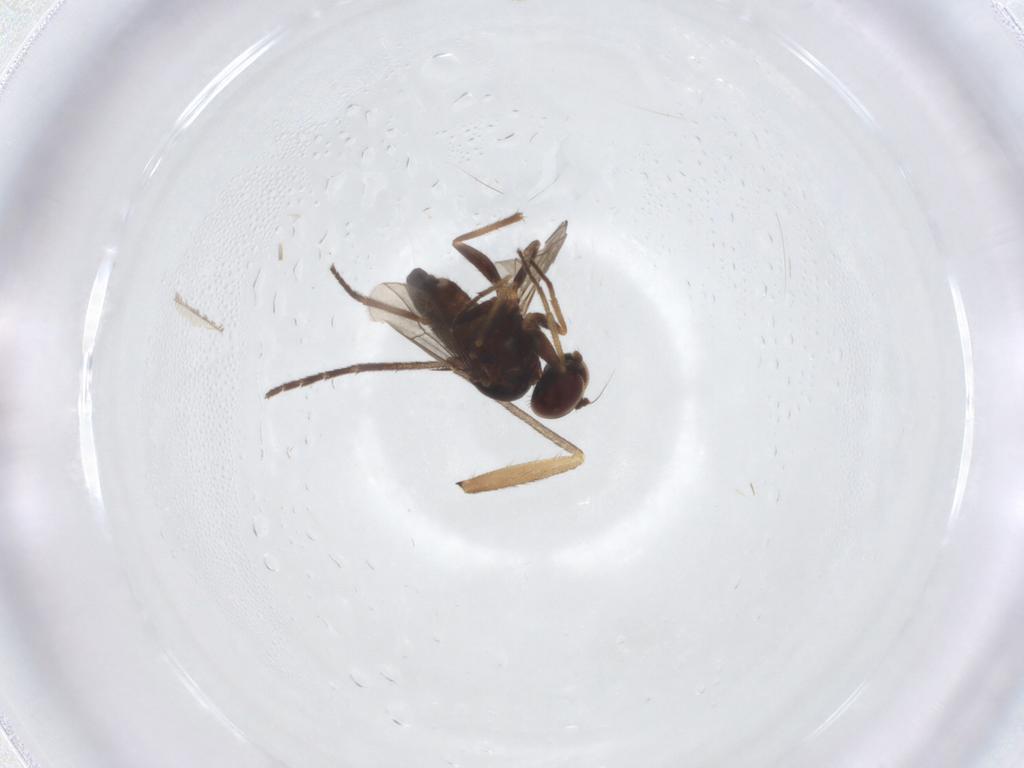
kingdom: Animalia
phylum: Arthropoda
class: Insecta
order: Diptera
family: Sciaridae
